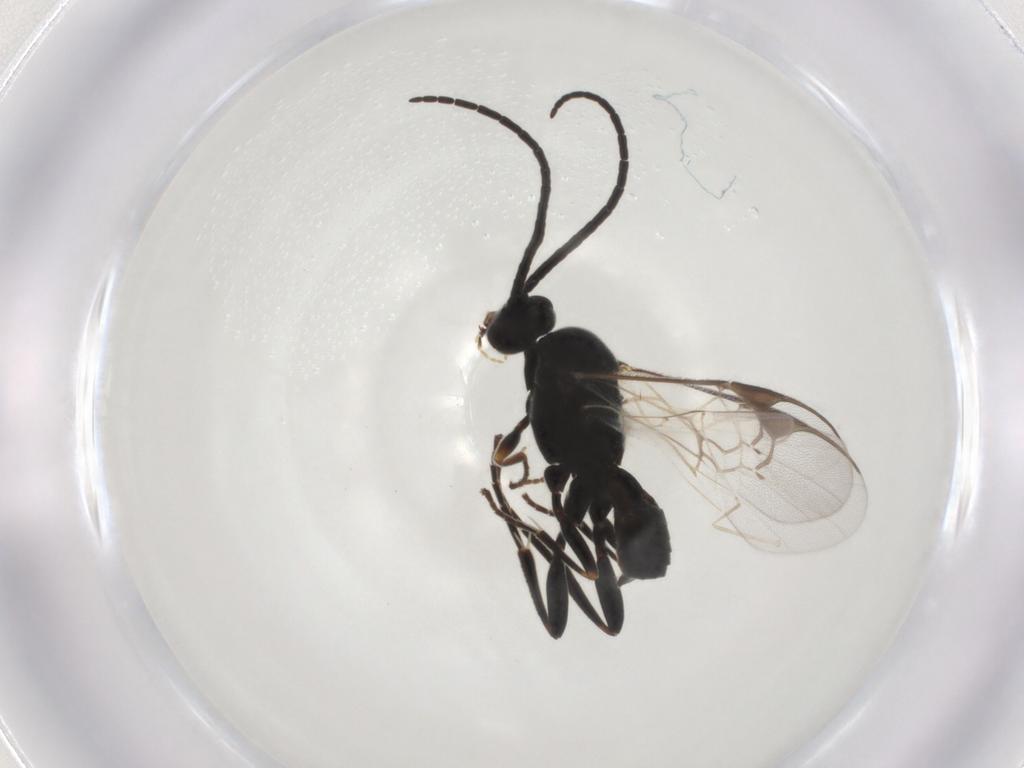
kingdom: Animalia
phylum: Arthropoda
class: Insecta
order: Hymenoptera
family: Braconidae
